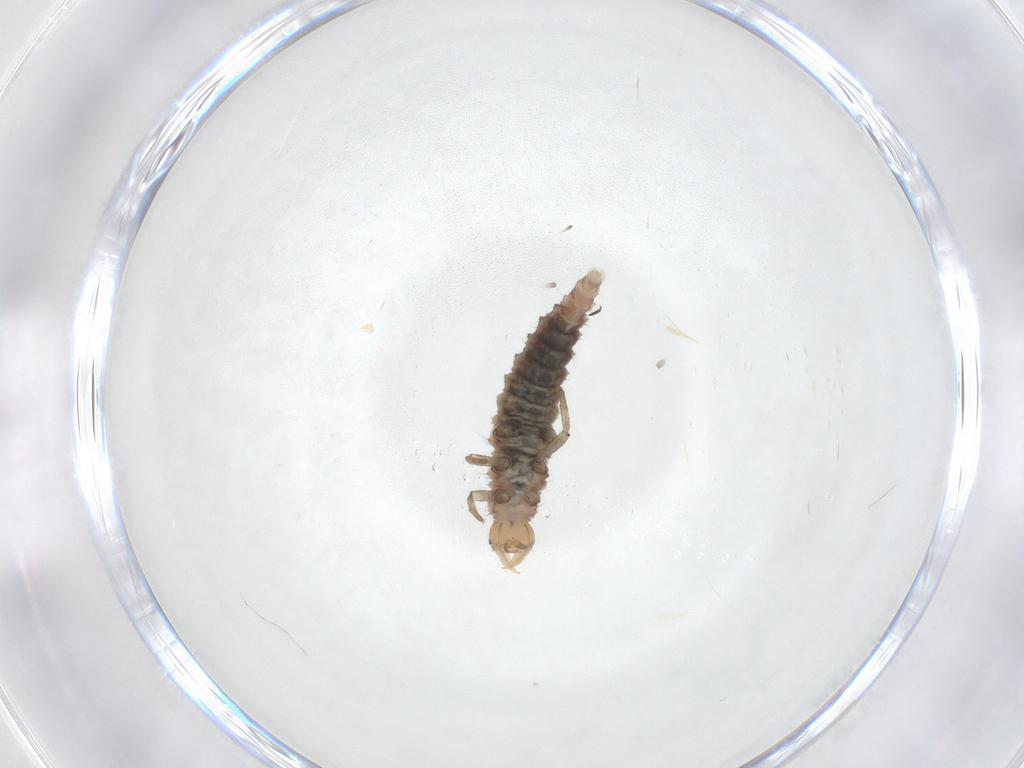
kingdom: Animalia
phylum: Arthropoda
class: Insecta
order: Neuroptera
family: Hemerobiidae
